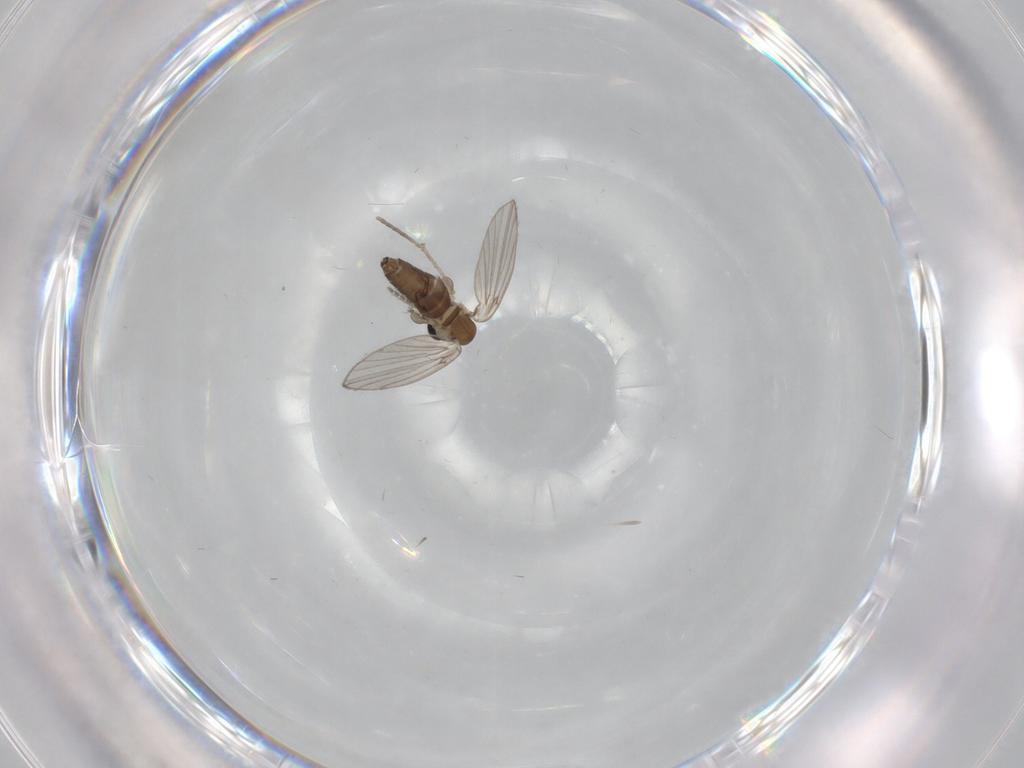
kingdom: Animalia
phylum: Arthropoda
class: Insecta
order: Diptera
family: Sciaridae
